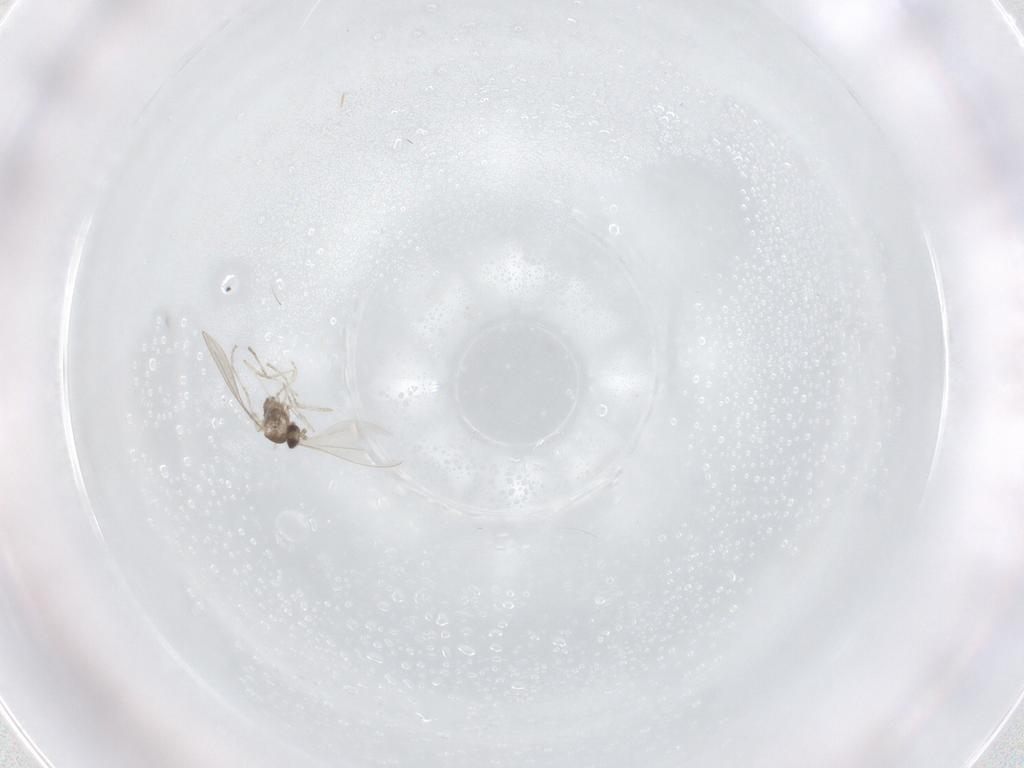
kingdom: Animalia
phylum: Arthropoda
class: Insecta
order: Diptera
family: Cecidomyiidae
